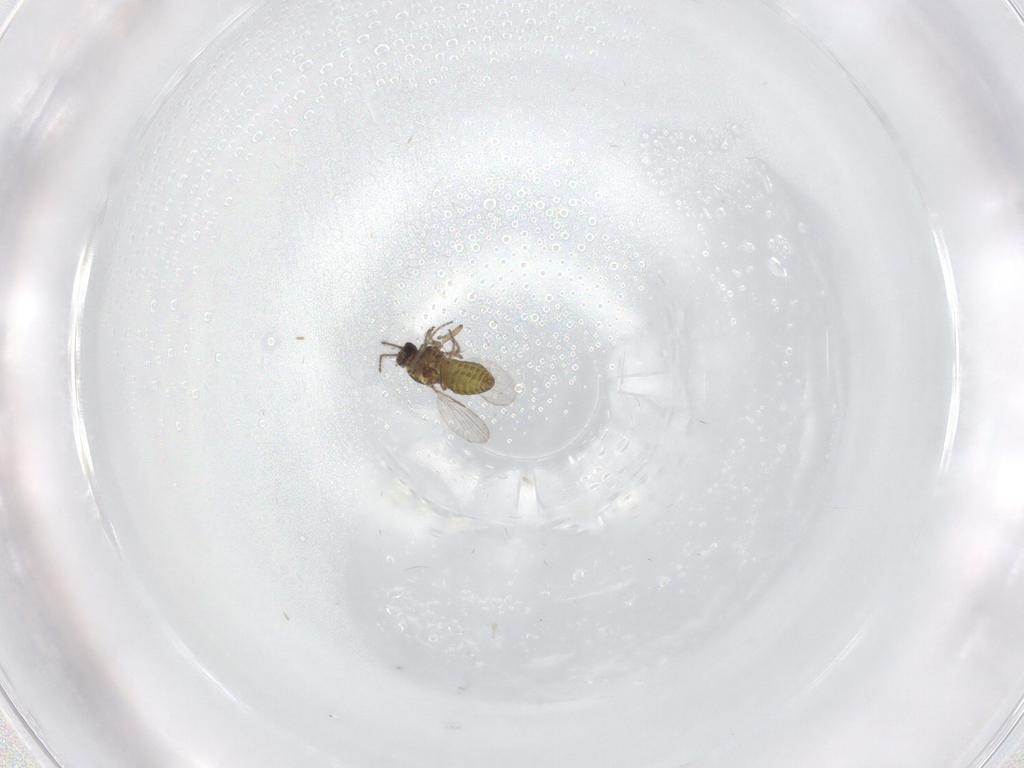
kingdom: Animalia
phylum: Arthropoda
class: Insecta
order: Diptera
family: Ceratopogonidae
